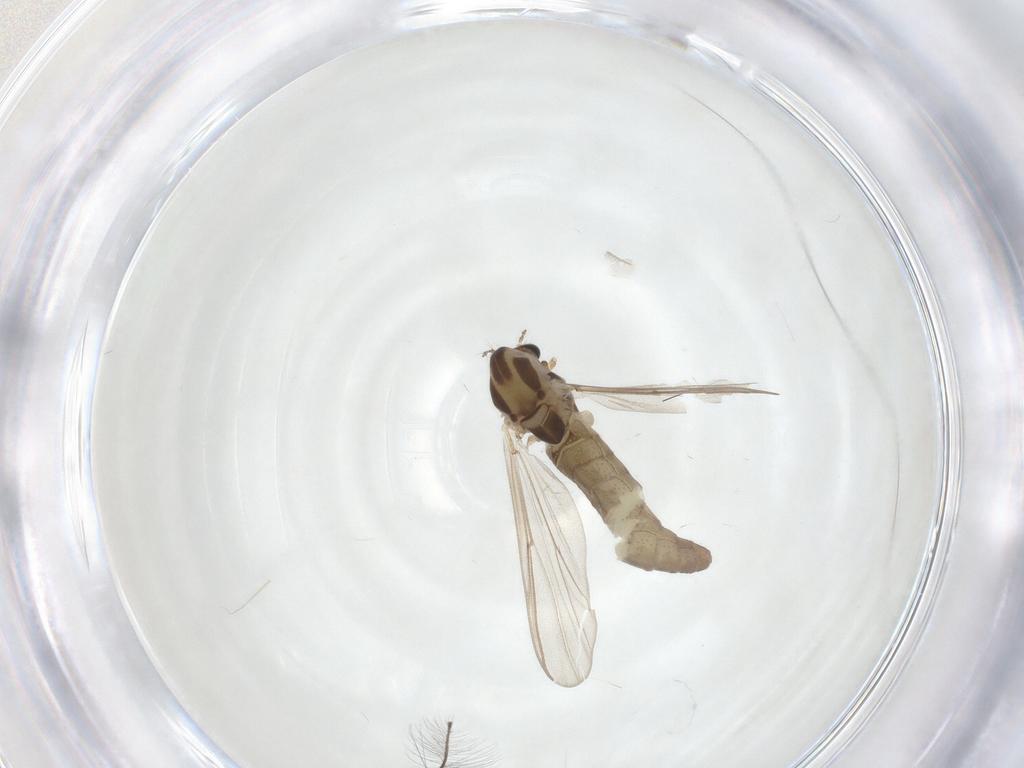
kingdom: Animalia
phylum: Arthropoda
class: Insecta
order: Diptera
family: Chironomidae
